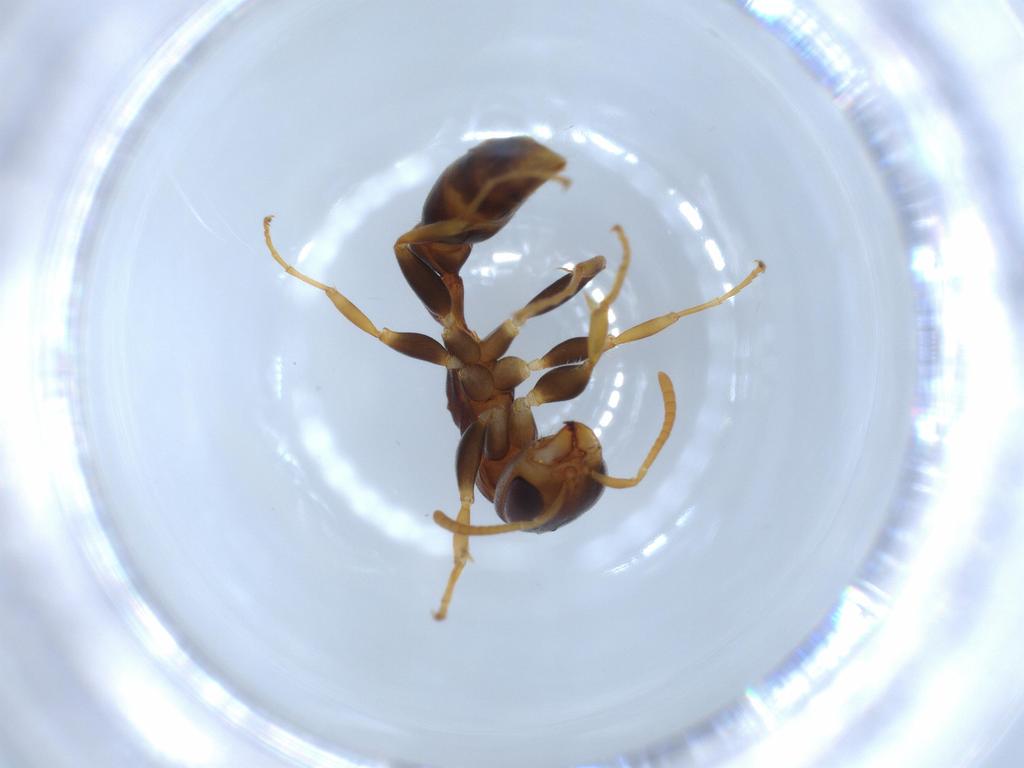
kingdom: Animalia
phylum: Arthropoda
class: Insecta
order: Hymenoptera
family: Formicidae
